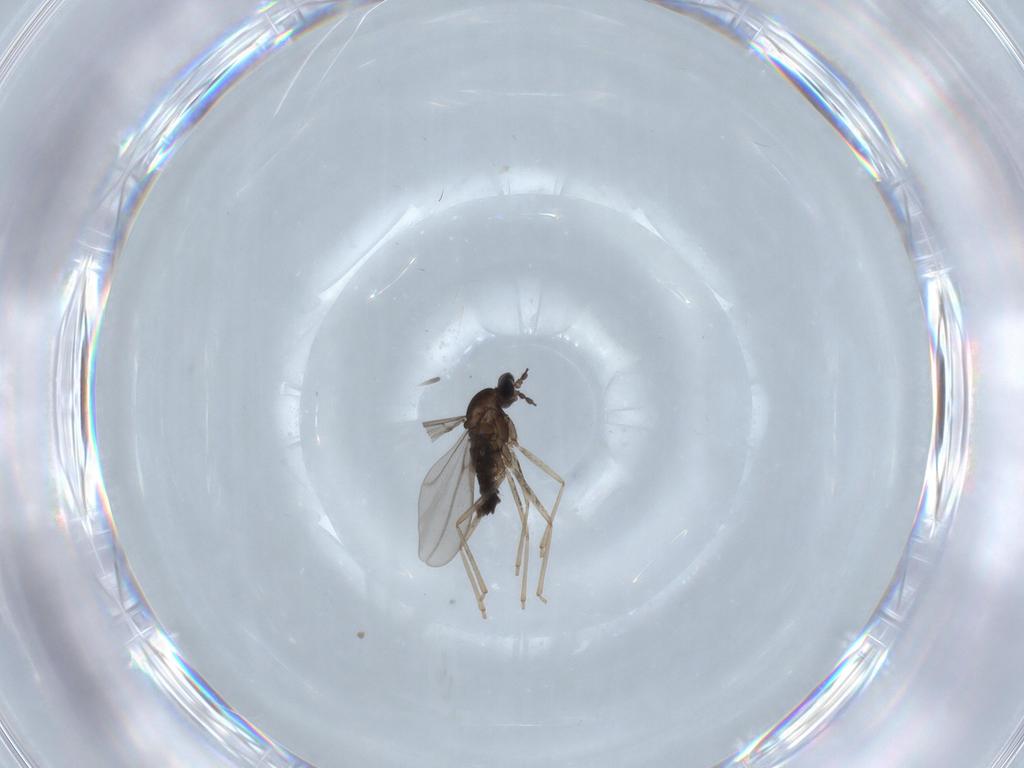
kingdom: Animalia
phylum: Arthropoda
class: Insecta
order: Diptera
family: Cecidomyiidae
